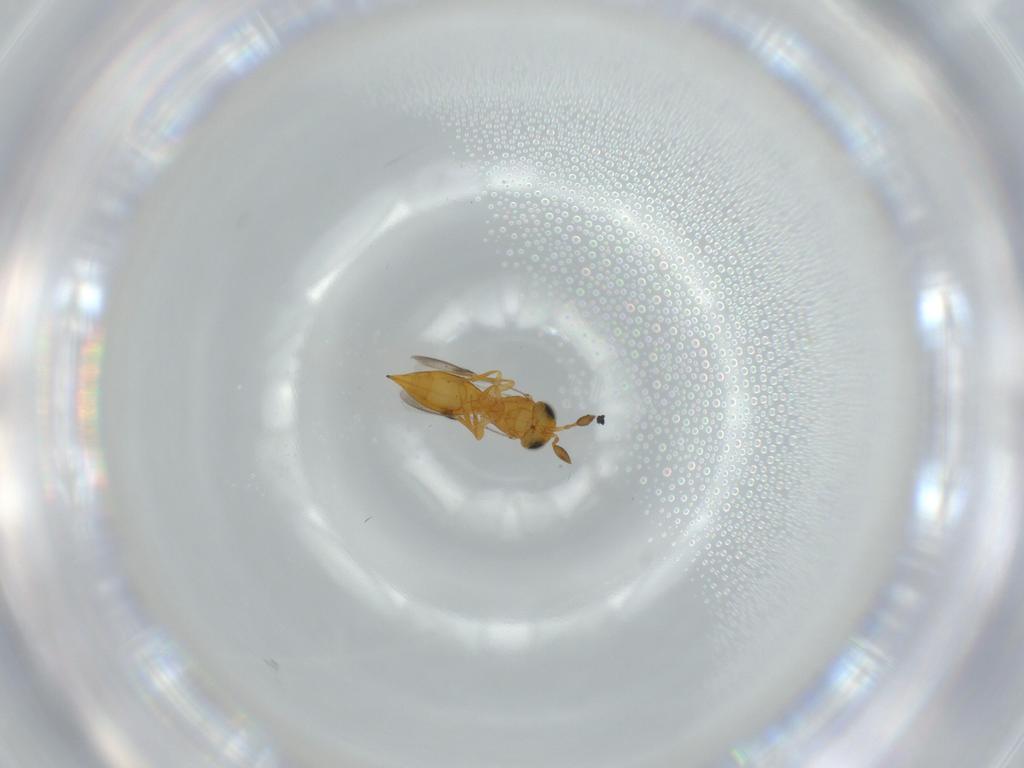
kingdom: Animalia
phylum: Arthropoda
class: Insecta
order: Hymenoptera
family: Scelionidae
